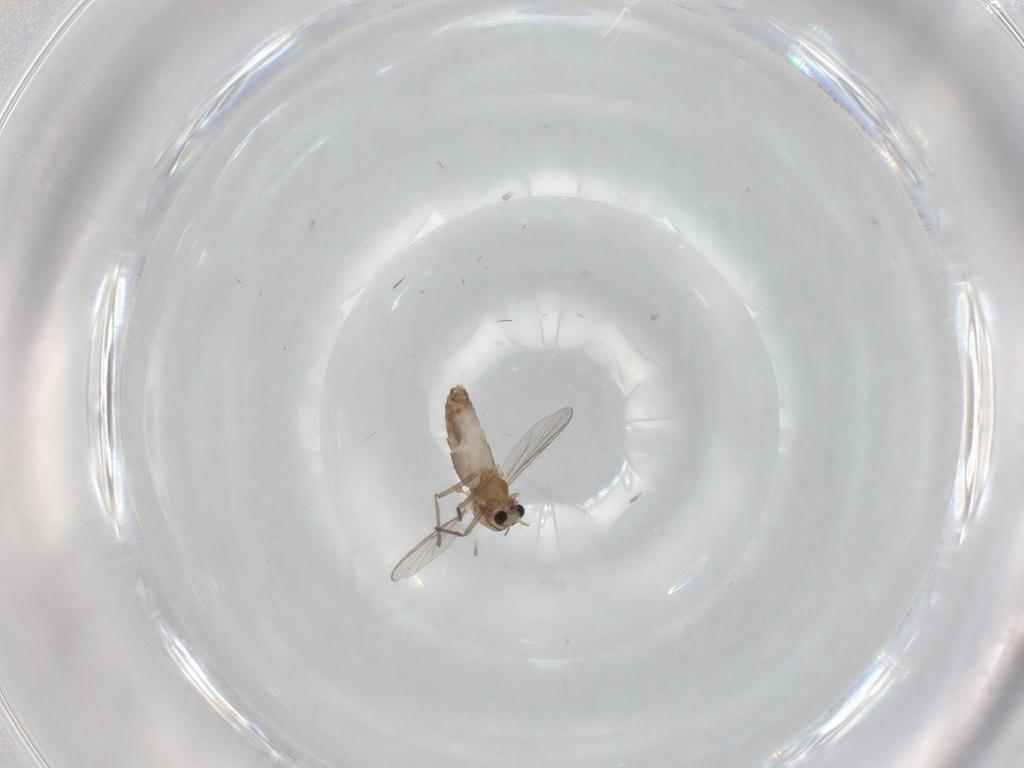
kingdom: Animalia
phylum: Arthropoda
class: Insecta
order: Diptera
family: Chironomidae
